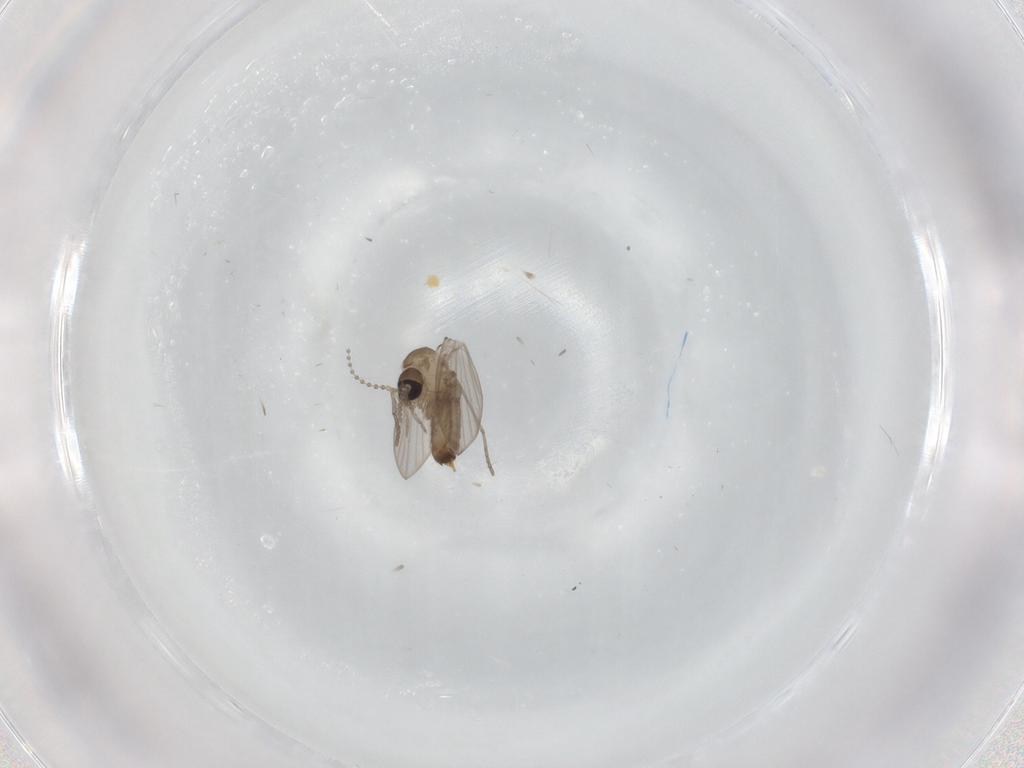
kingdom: Animalia
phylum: Arthropoda
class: Insecta
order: Diptera
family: Psychodidae
